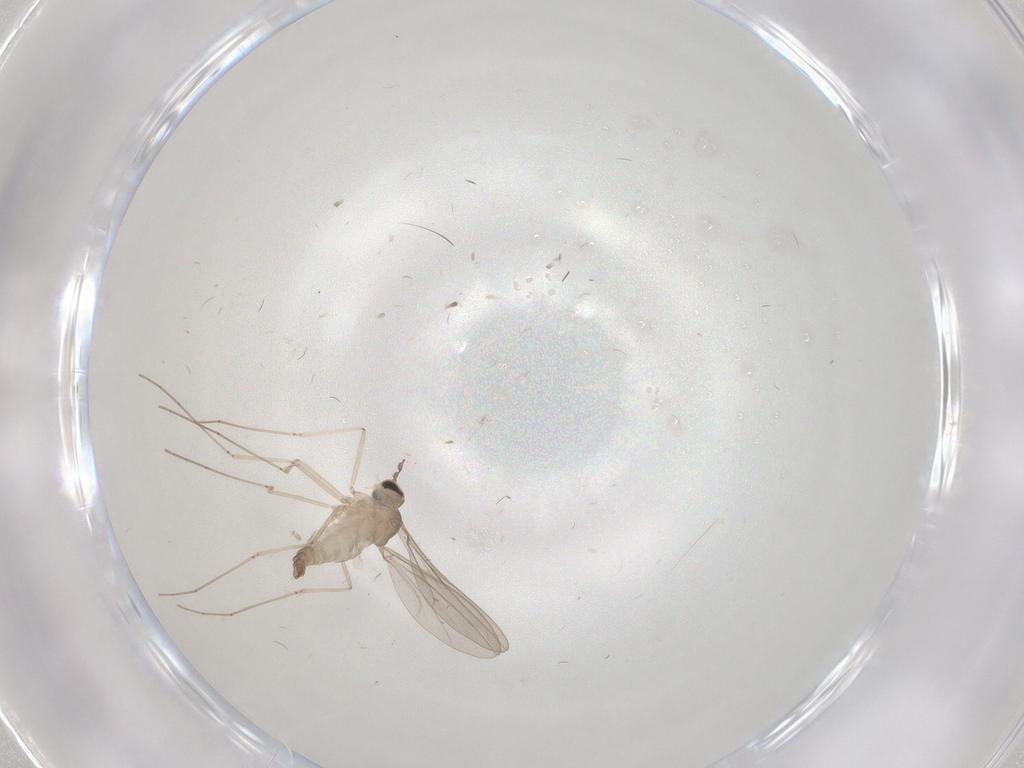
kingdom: Animalia
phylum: Arthropoda
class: Insecta
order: Diptera
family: Cecidomyiidae
